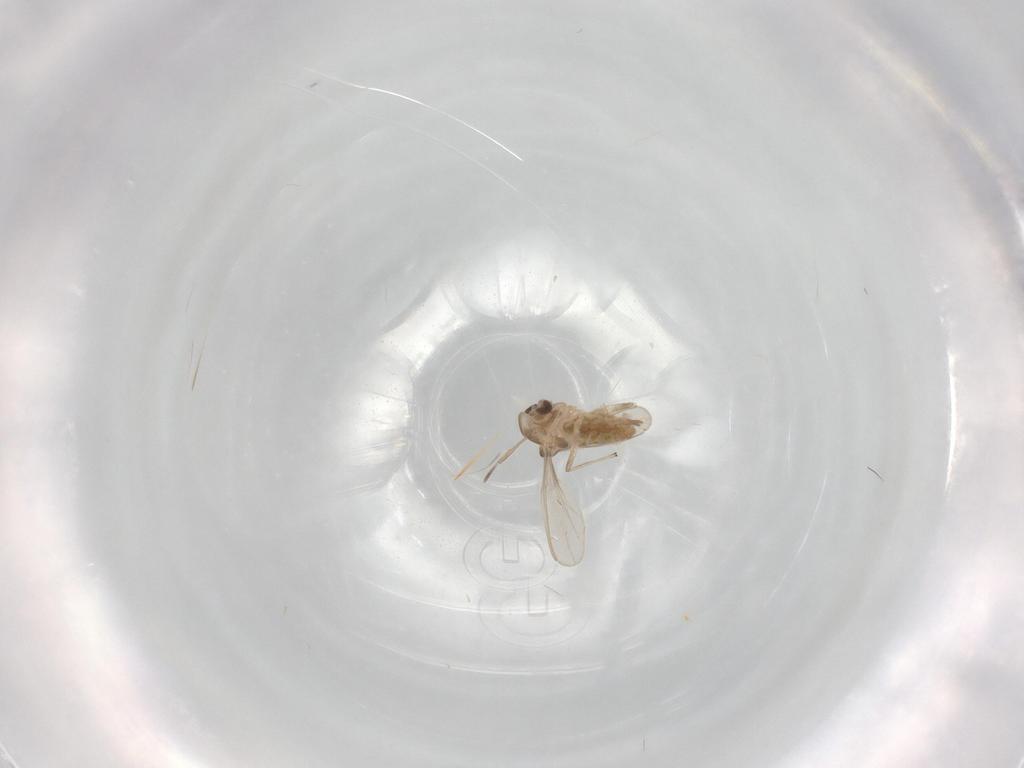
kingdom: Animalia
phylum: Arthropoda
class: Insecta
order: Diptera
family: Chironomidae
